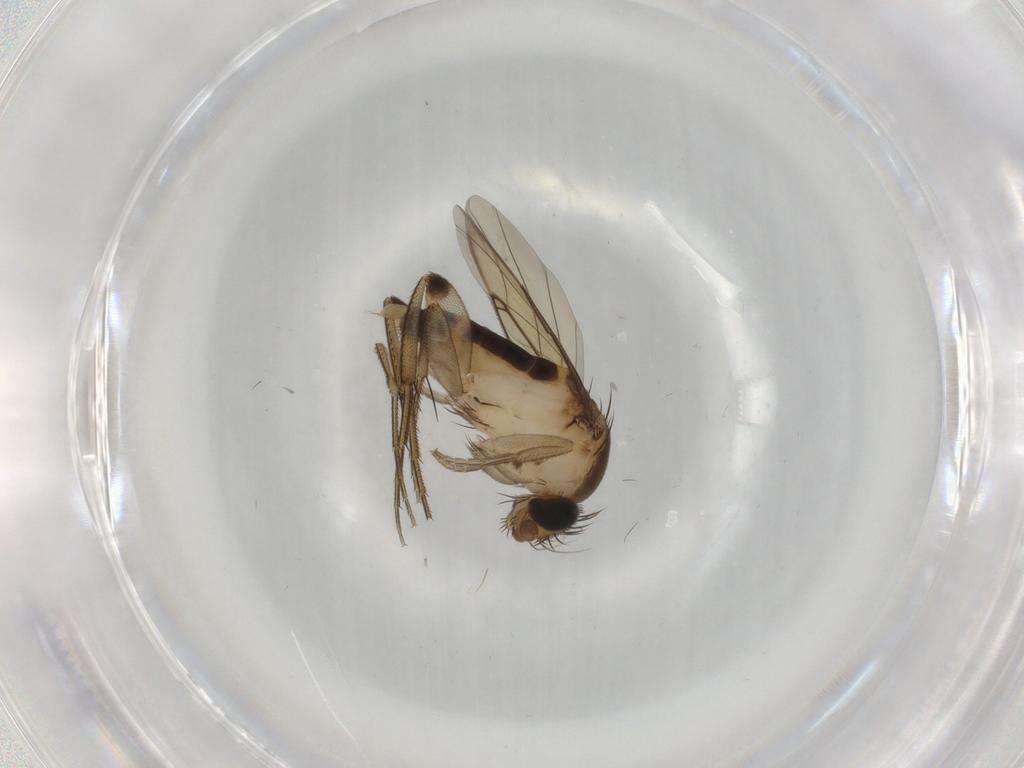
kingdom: Animalia
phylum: Arthropoda
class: Insecta
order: Diptera
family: Phoridae
